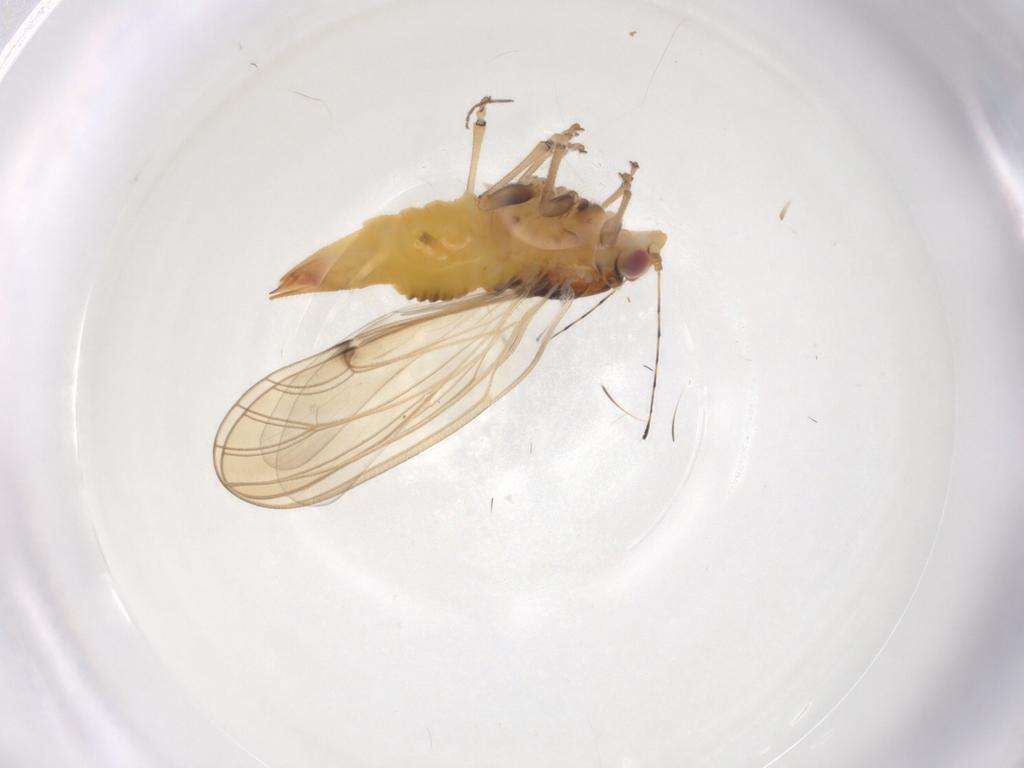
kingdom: Animalia
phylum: Arthropoda
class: Insecta
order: Hemiptera
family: Psylloidea_incertae_sedis
